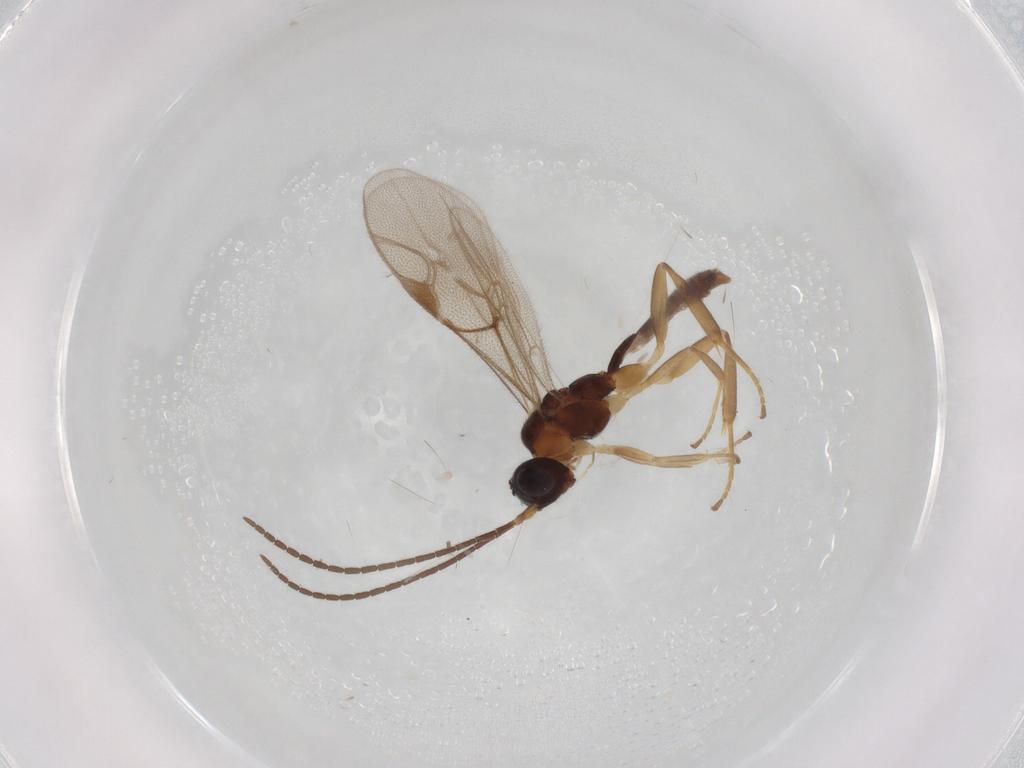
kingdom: Animalia
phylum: Arthropoda
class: Insecta
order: Hymenoptera
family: Ichneumonidae
